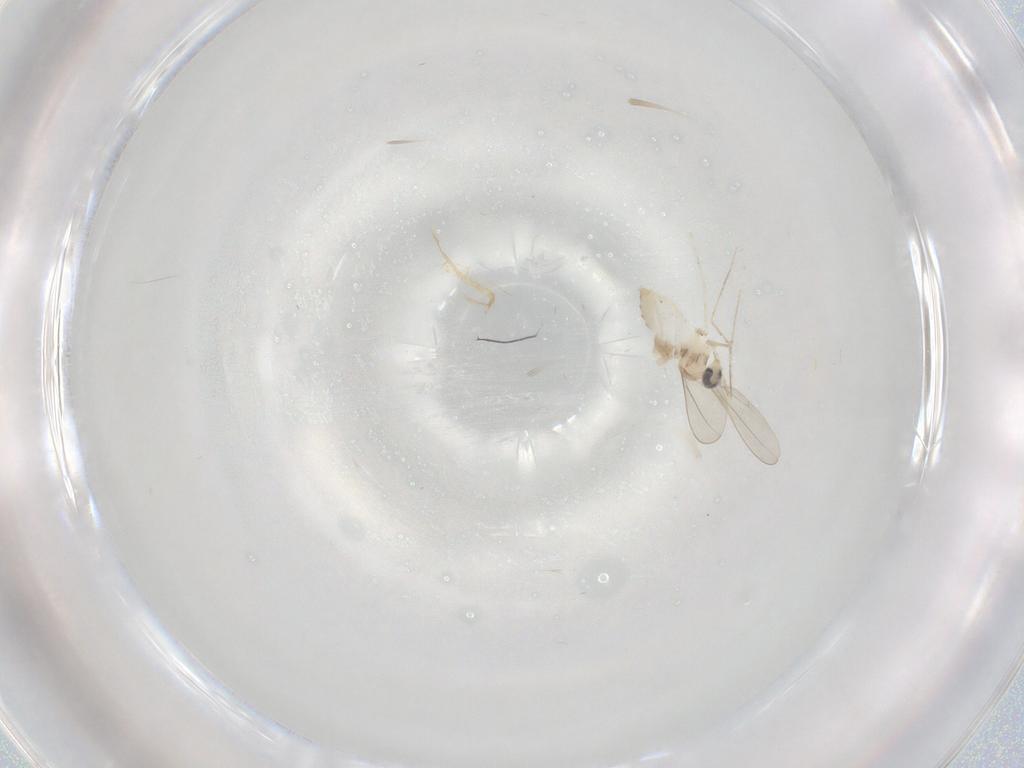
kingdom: Animalia
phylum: Arthropoda
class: Insecta
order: Diptera
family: Cecidomyiidae
